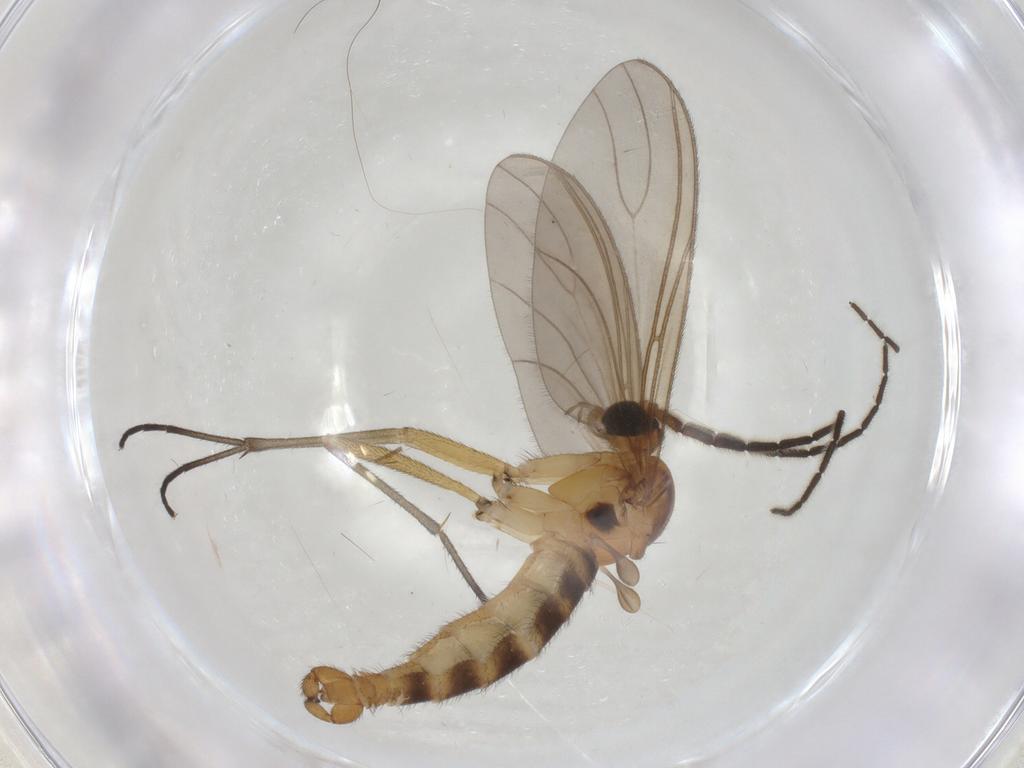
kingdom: Animalia
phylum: Arthropoda
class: Insecta
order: Diptera
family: Sciaridae
